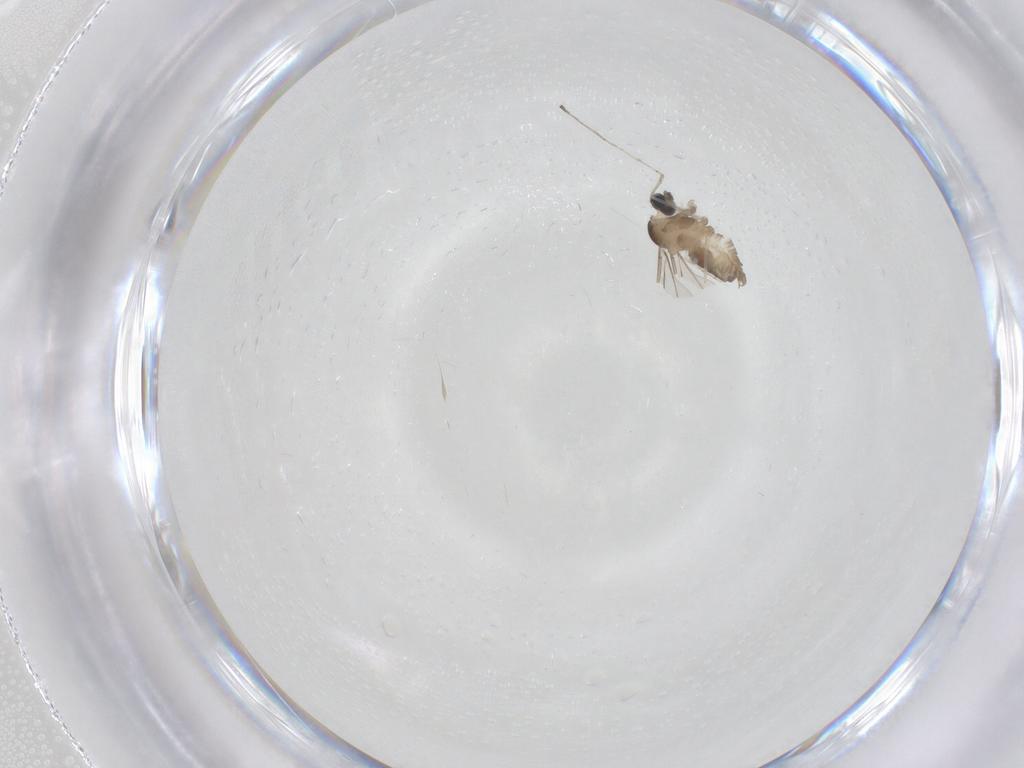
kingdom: Animalia
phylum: Arthropoda
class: Insecta
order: Diptera
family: Cecidomyiidae
